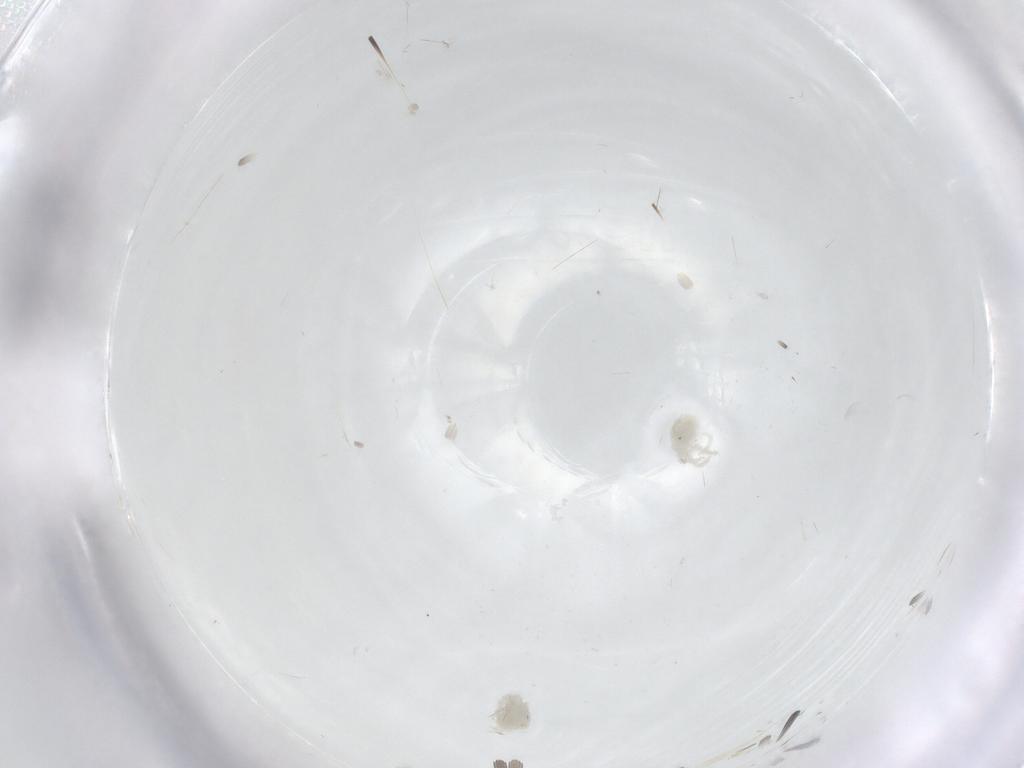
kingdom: Animalia
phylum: Arthropoda
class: Arachnida
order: Trombidiformes
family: Anystidae
